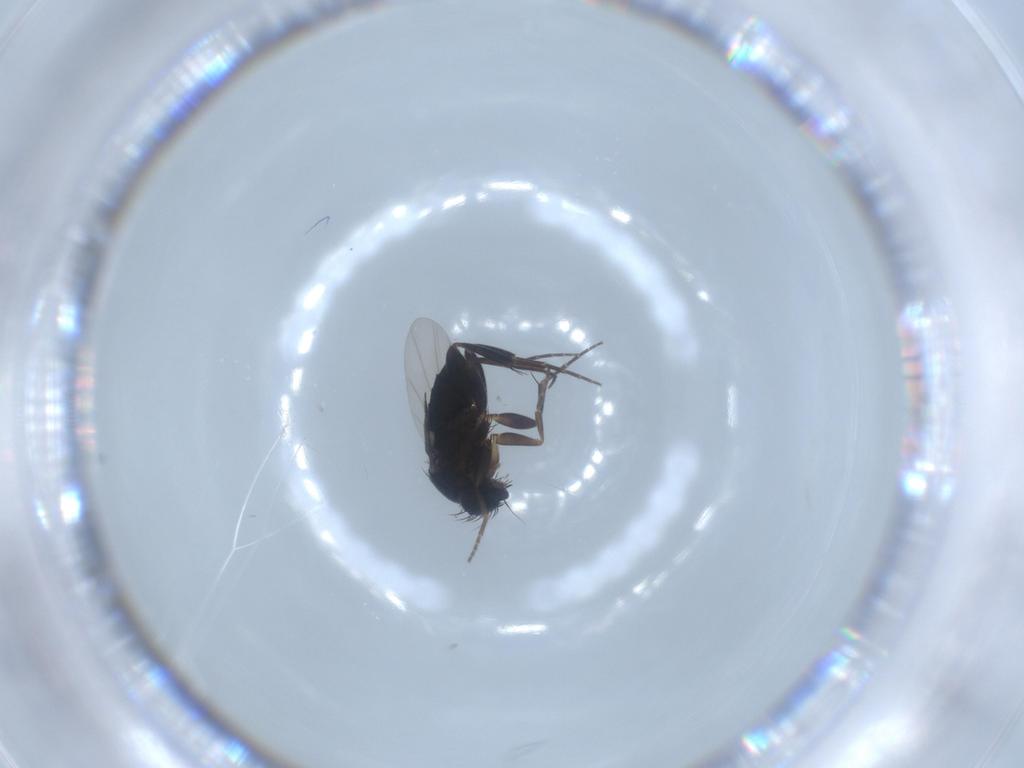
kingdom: Animalia
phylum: Arthropoda
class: Insecta
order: Diptera
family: Phoridae
